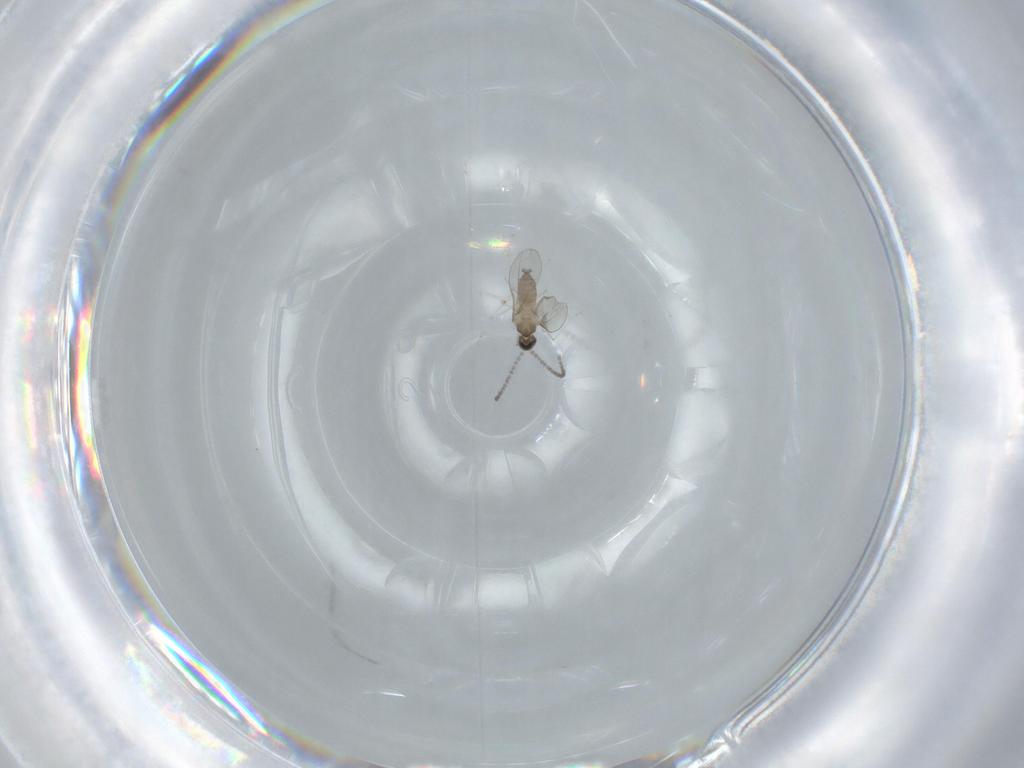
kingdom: Animalia
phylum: Arthropoda
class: Insecta
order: Diptera
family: Cecidomyiidae
